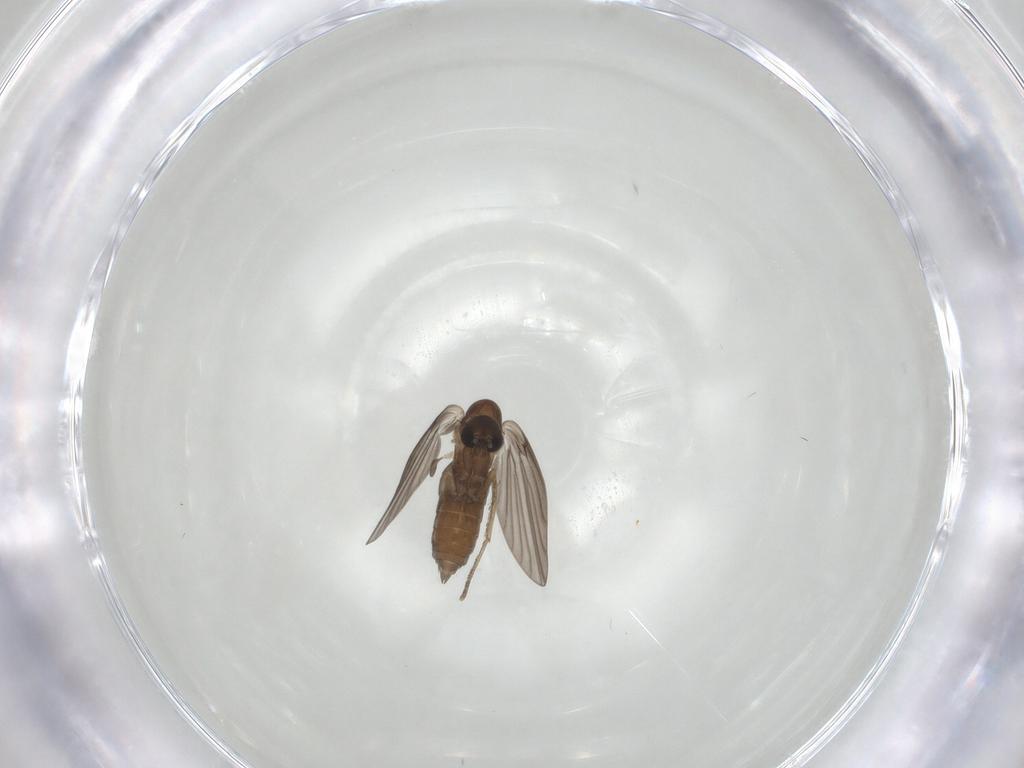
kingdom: Animalia
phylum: Arthropoda
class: Insecta
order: Diptera
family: Psychodidae
